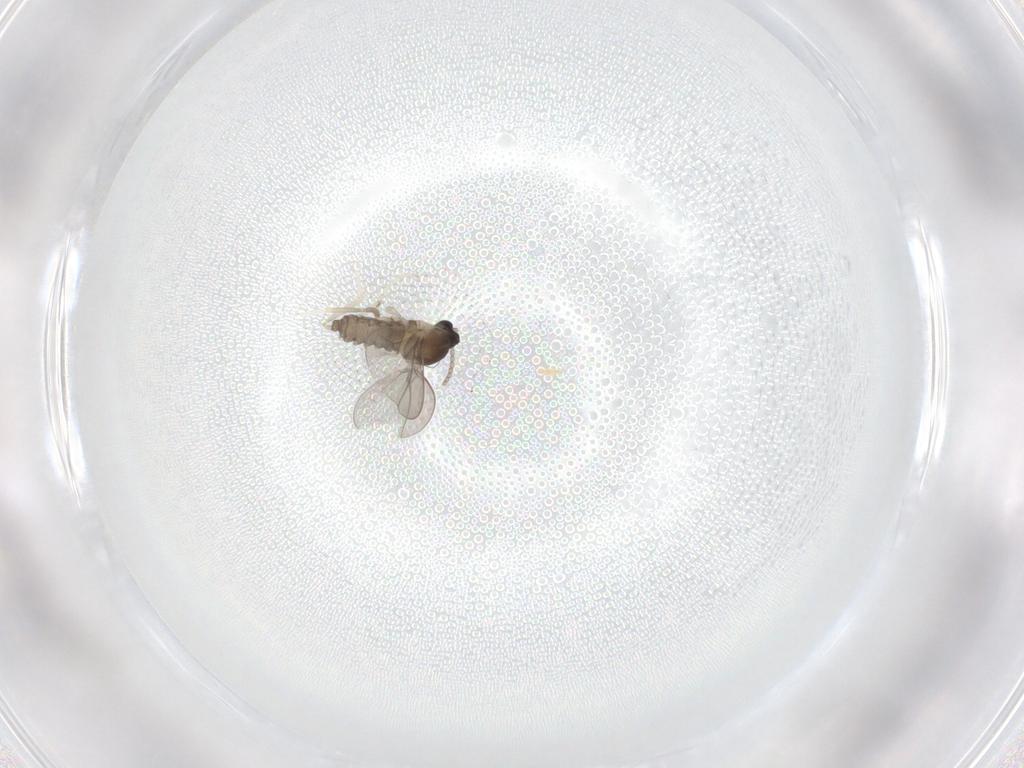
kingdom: Animalia
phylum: Arthropoda
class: Insecta
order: Diptera
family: Cecidomyiidae
